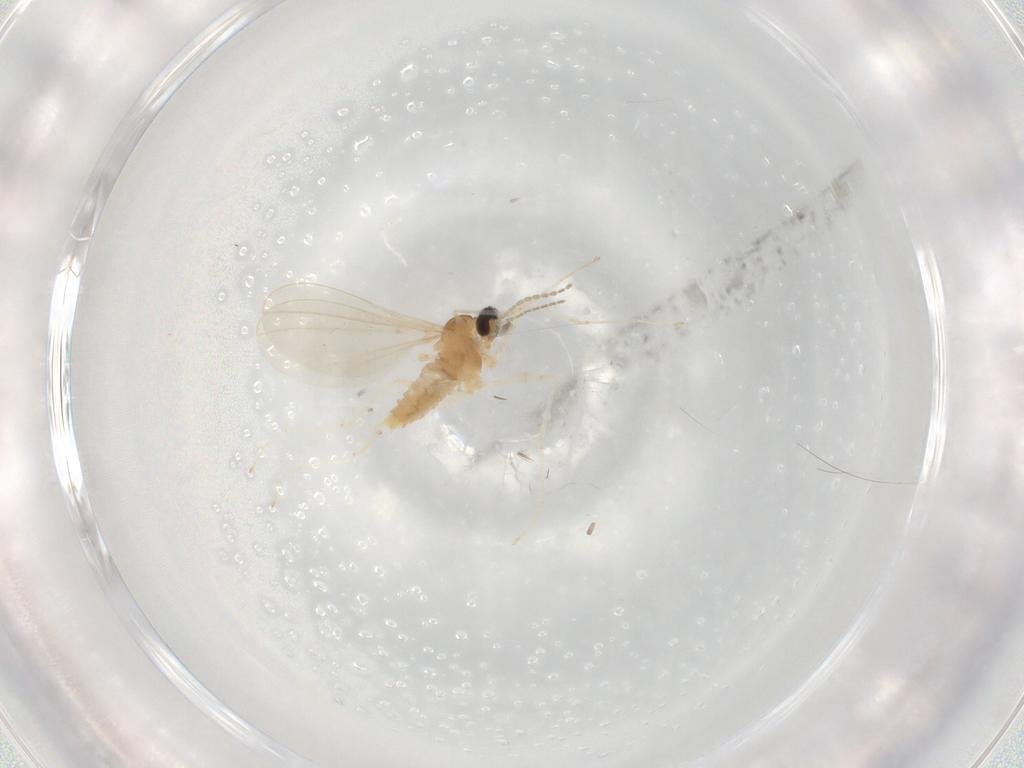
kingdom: Animalia
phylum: Arthropoda
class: Insecta
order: Diptera
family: Cecidomyiidae
